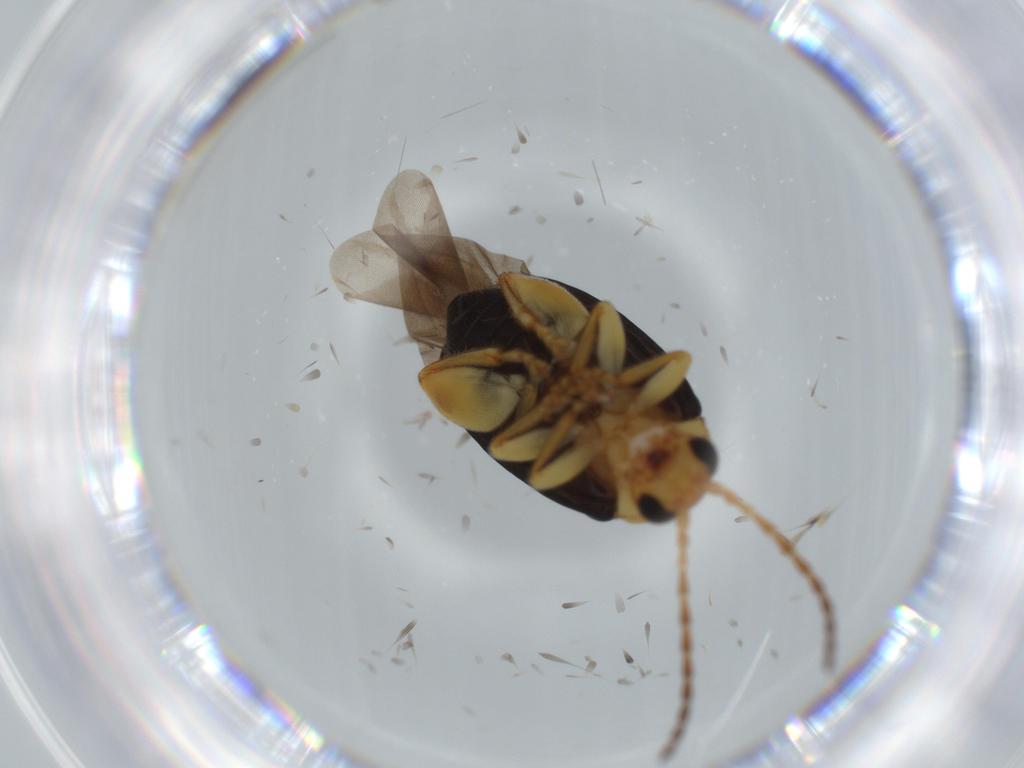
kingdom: Animalia
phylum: Arthropoda
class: Insecta
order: Coleoptera
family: Chrysomelidae
